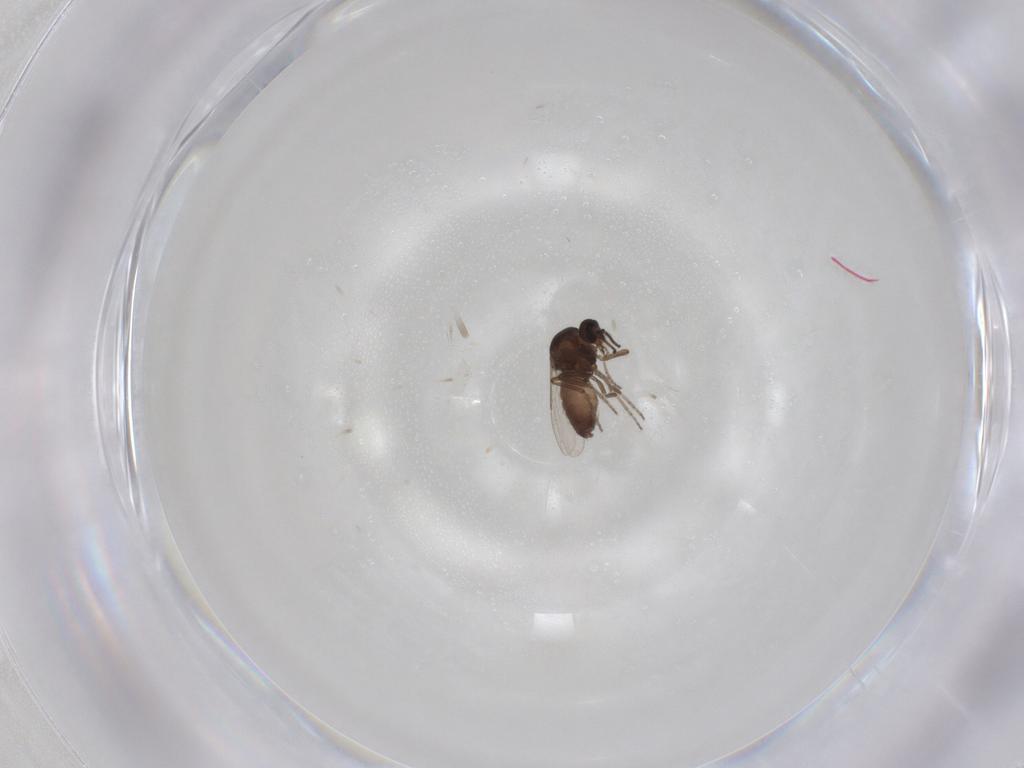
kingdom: Animalia
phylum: Arthropoda
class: Insecta
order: Diptera
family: Ceratopogonidae
